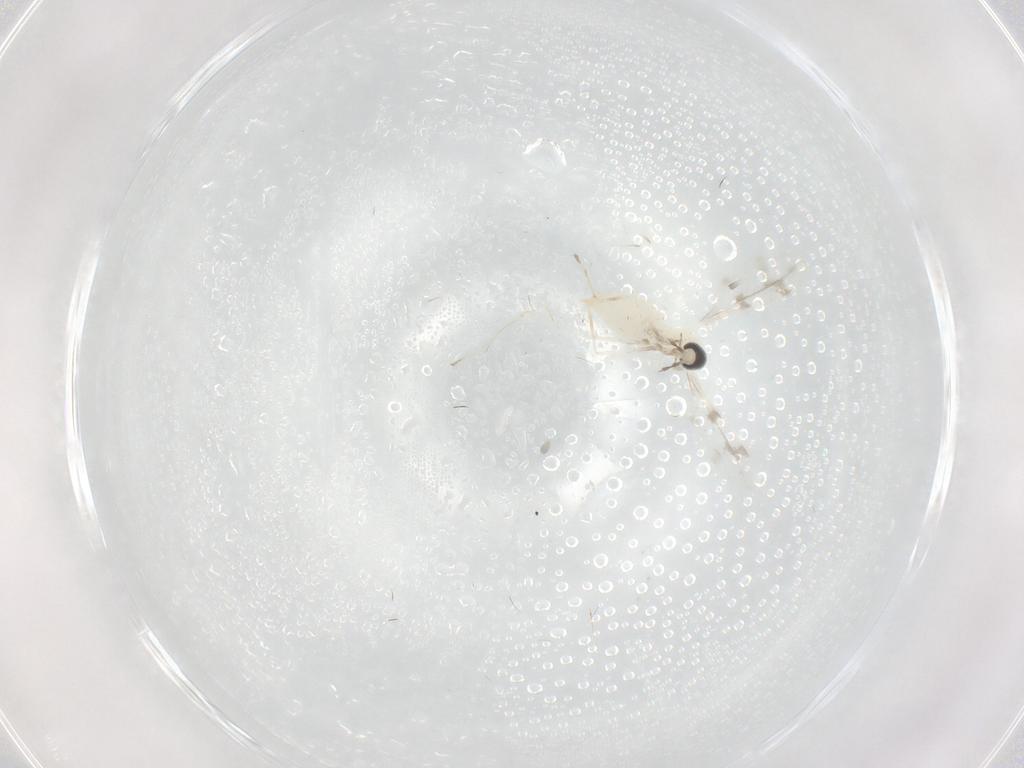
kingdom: Animalia
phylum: Arthropoda
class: Insecta
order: Diptera
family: Cecidomyiidae
